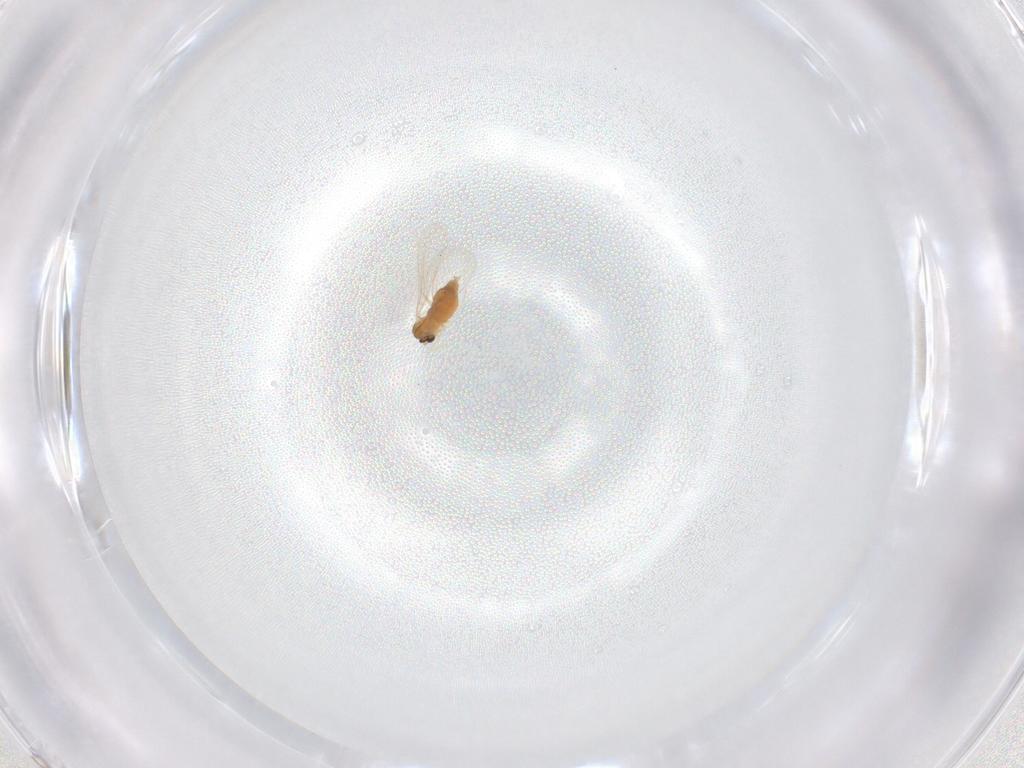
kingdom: Animalia
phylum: Arthropoda
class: Insecta
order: Diptera
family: Cecidomyiidae
